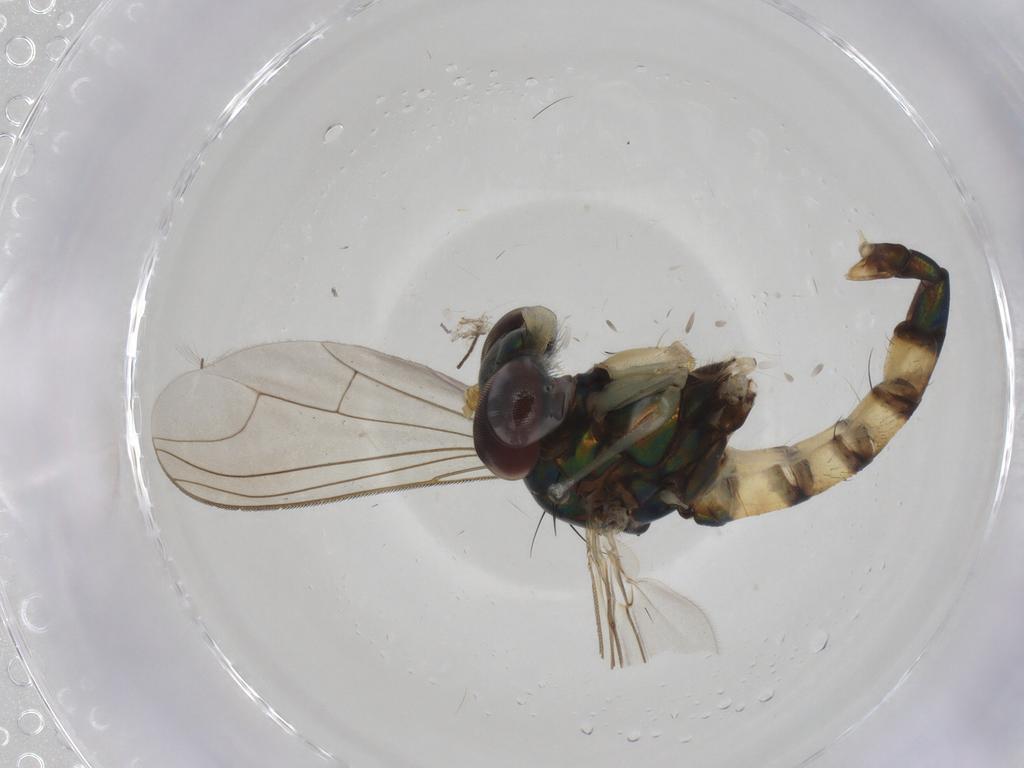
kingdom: Animalia
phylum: Arthropoda
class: Insecta
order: Diptera
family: Dolichopodidae
